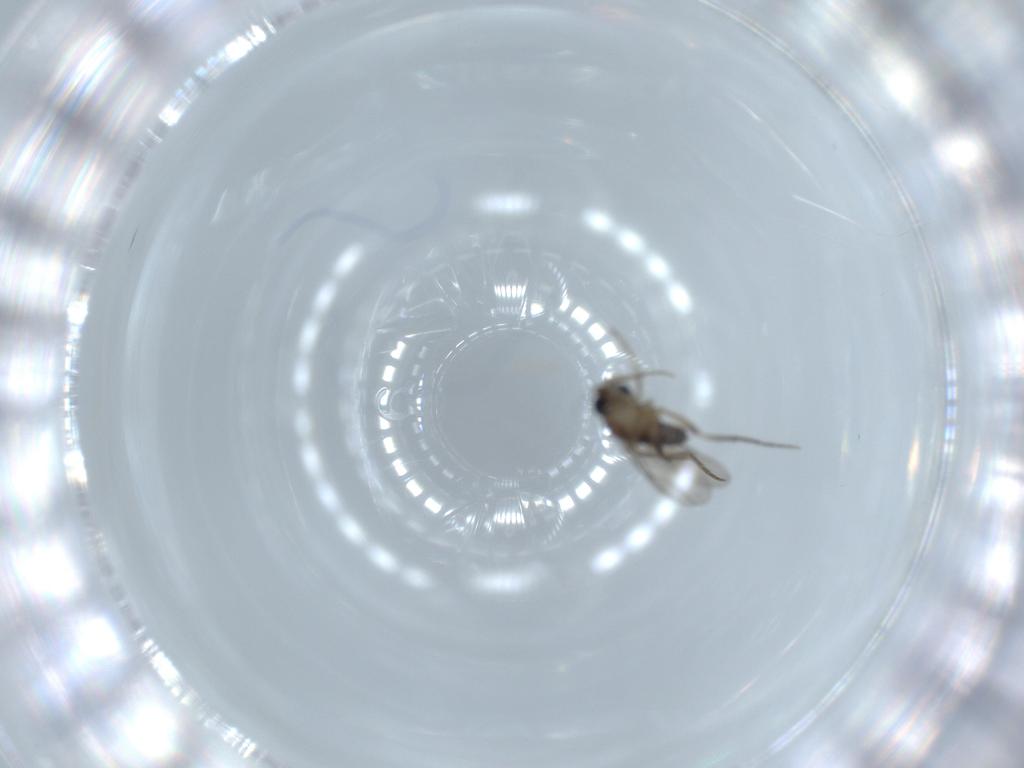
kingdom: Animalia
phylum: Arthropoda
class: Insecta
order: Diptera
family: Phoridae
